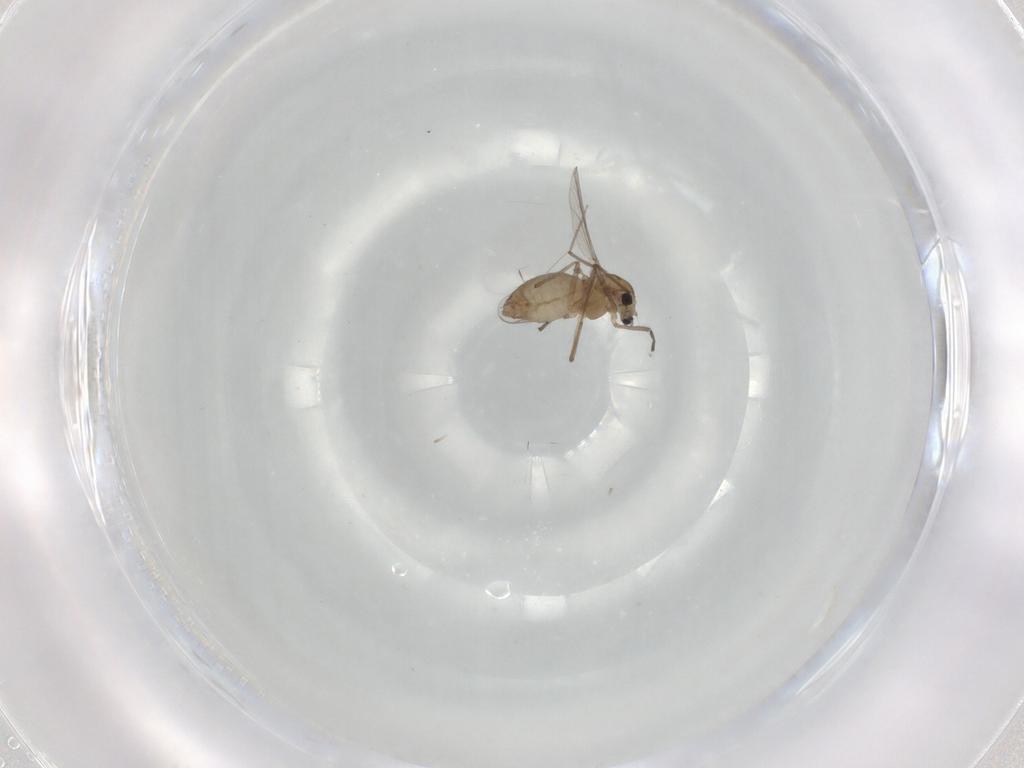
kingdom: Animalia
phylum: Arthropoda
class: Insecta
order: Diptera
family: Chironomidae
